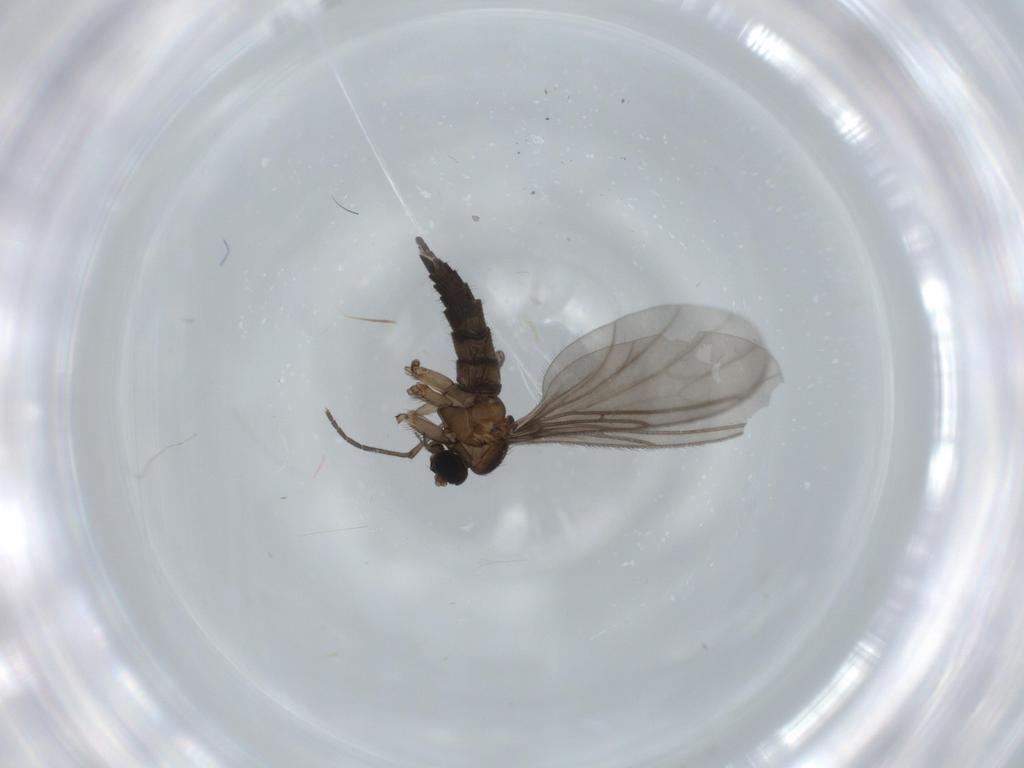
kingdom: Animalia
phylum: Arthropoda
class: Insecta
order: Diptera
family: Sciaridae
